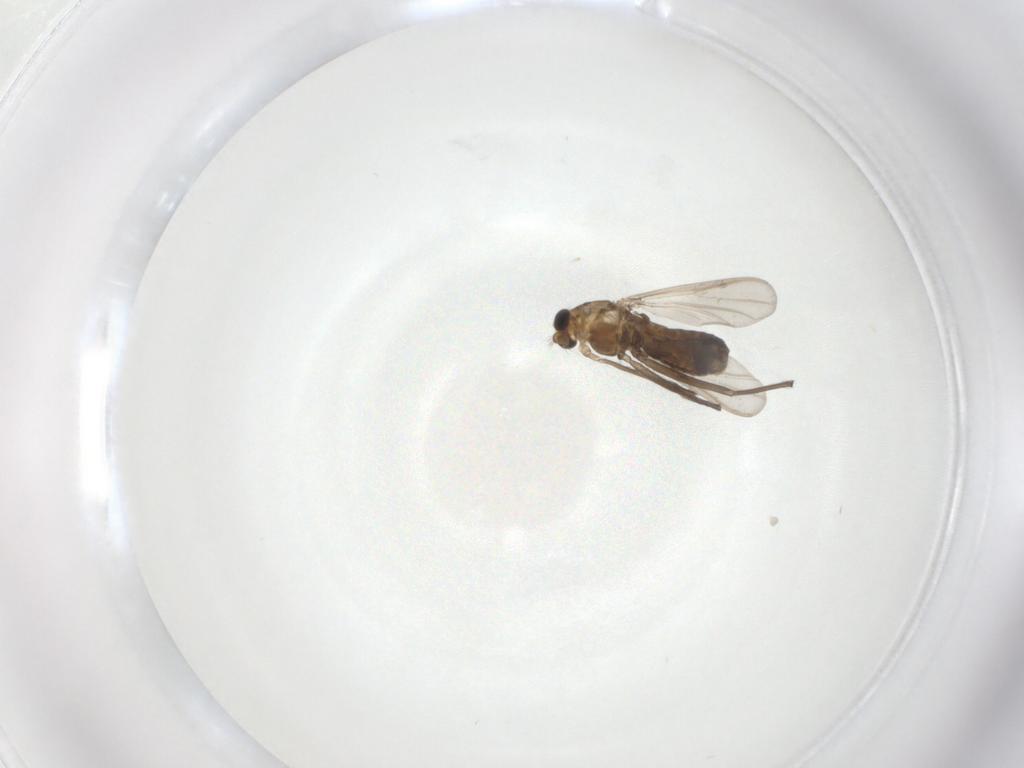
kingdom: Animalia
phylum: Arthropoda
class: Insecta
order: Diptera
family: Chironomidae
